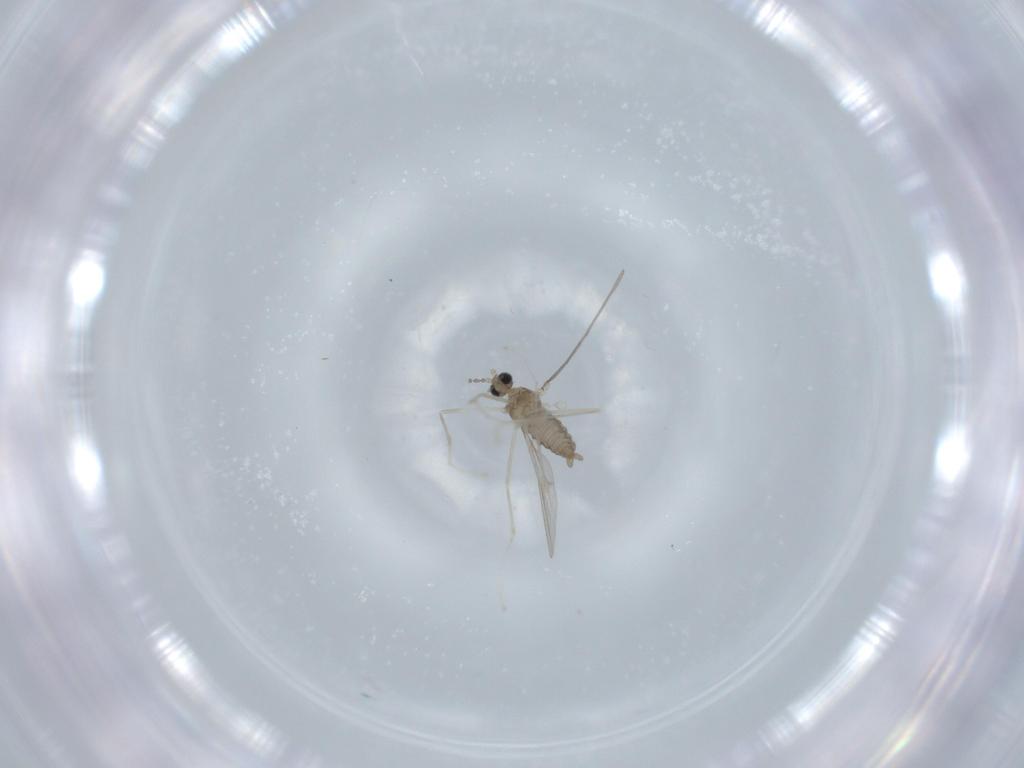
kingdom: Animalia
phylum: Arthropoda
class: Insecta
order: Diptera
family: Cecidomyiidae
